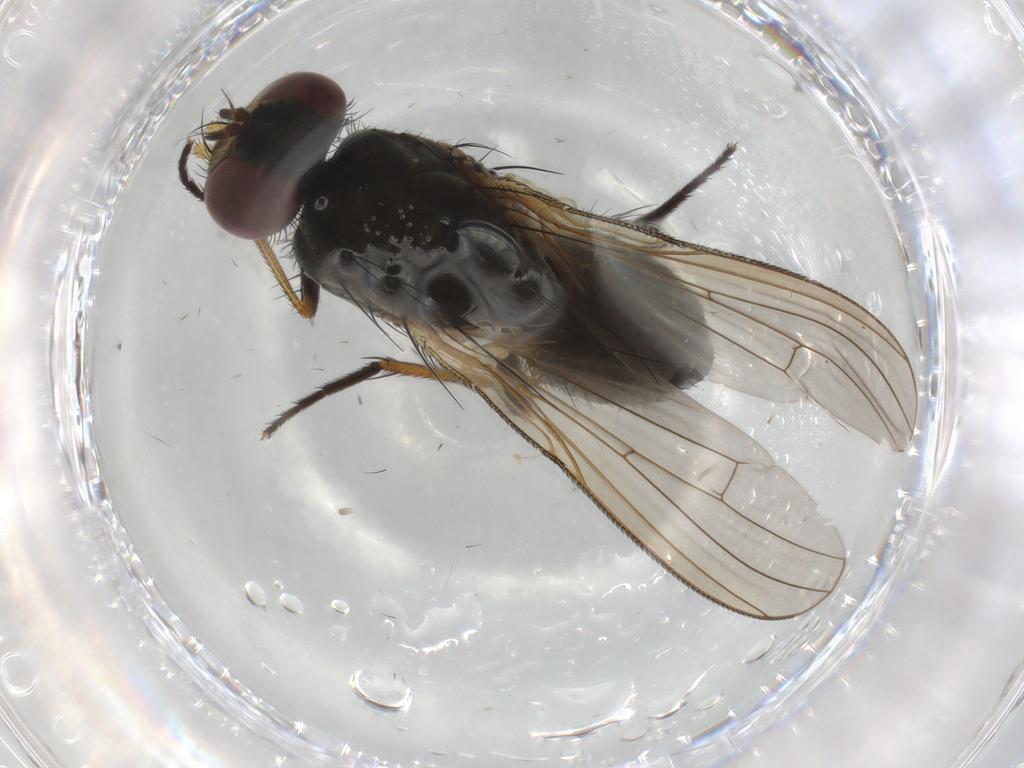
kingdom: Animalia
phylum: Arthropoda
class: Insecta
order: Diptera
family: Muscidae
